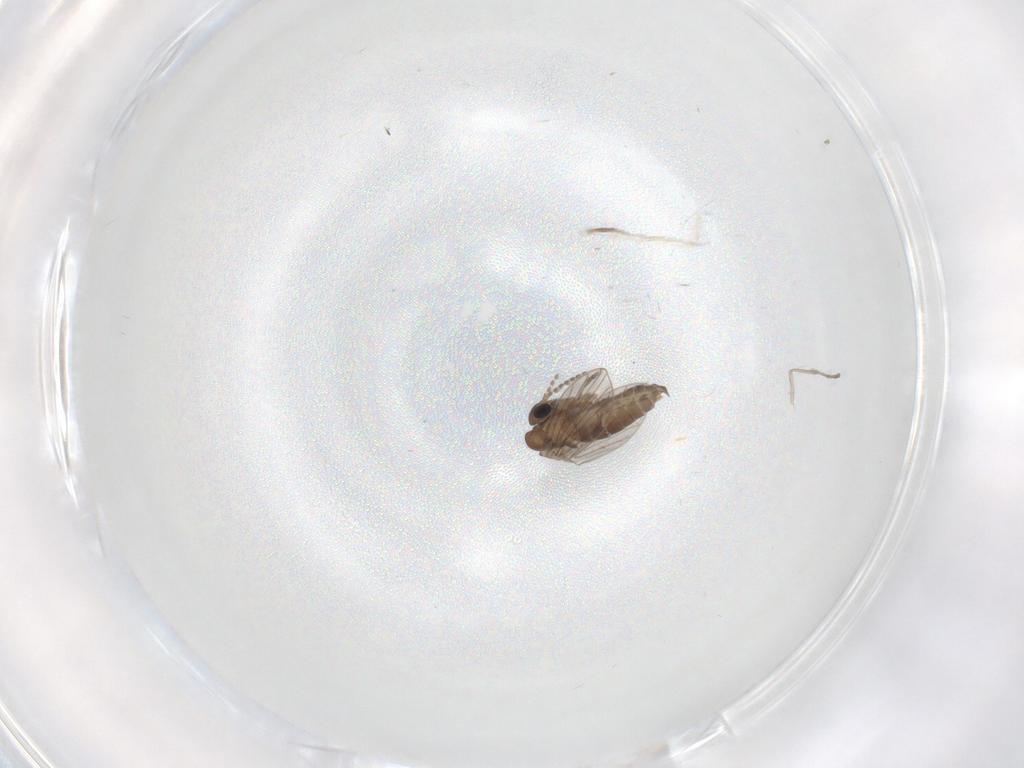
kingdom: Animalia
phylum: Arthropoda
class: Insecta
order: Diptera
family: Psychodidae
